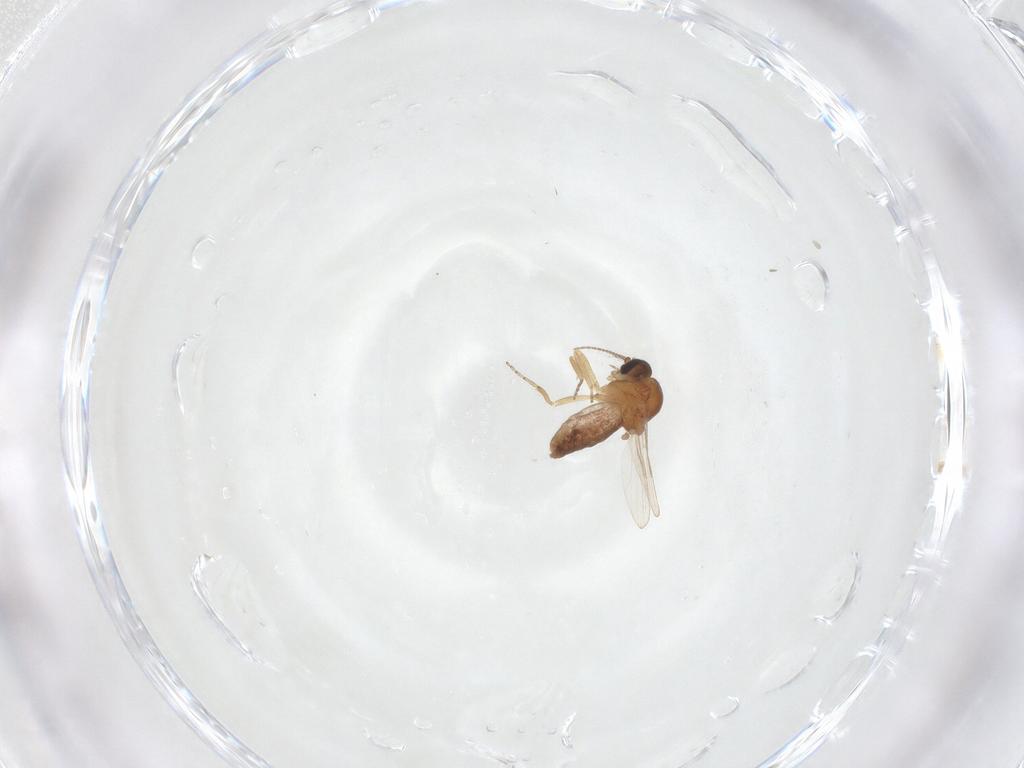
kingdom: Animalia
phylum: Arthropoda
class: Insecta
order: Diptera
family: Ceratopogonidae
